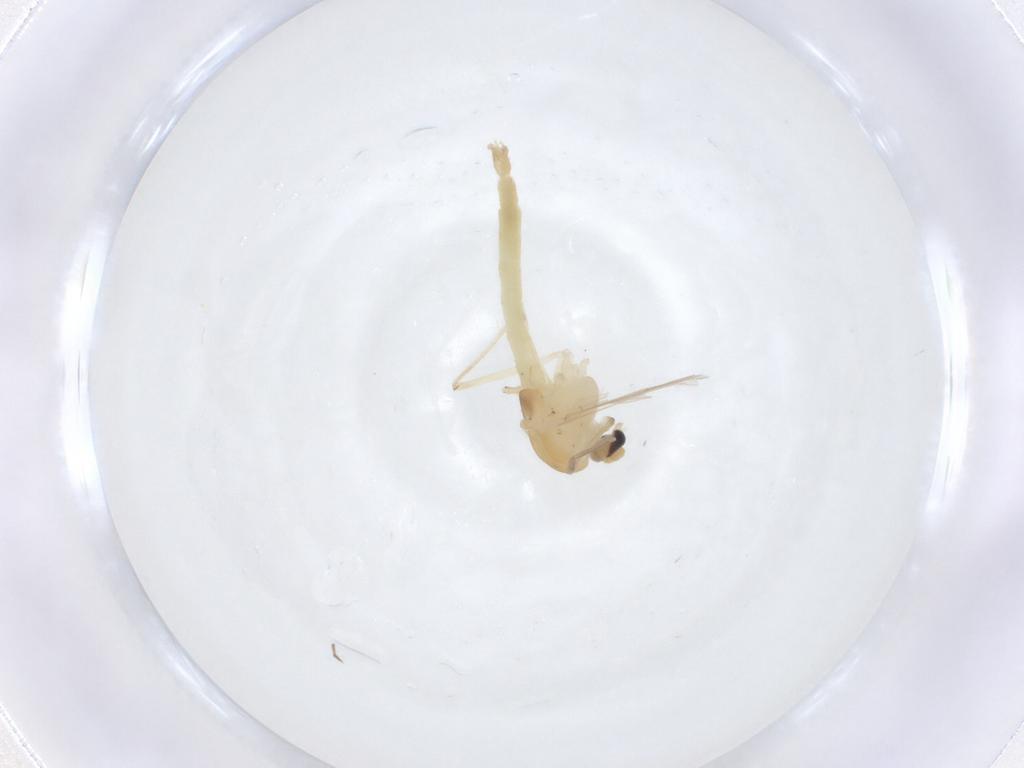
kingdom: Animalia
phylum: Arthropoda
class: Insecta
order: Diptera
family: Chironomidae
